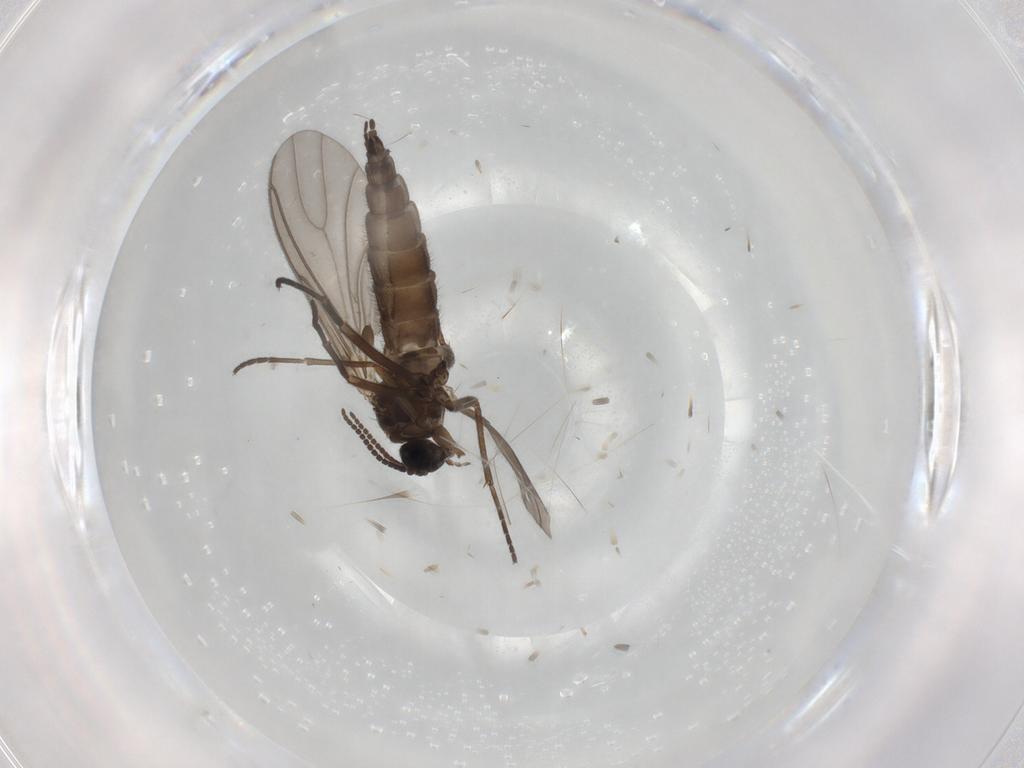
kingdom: Animalia
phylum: Arthropoda
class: Insecta
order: Diptera
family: Sciaridae
